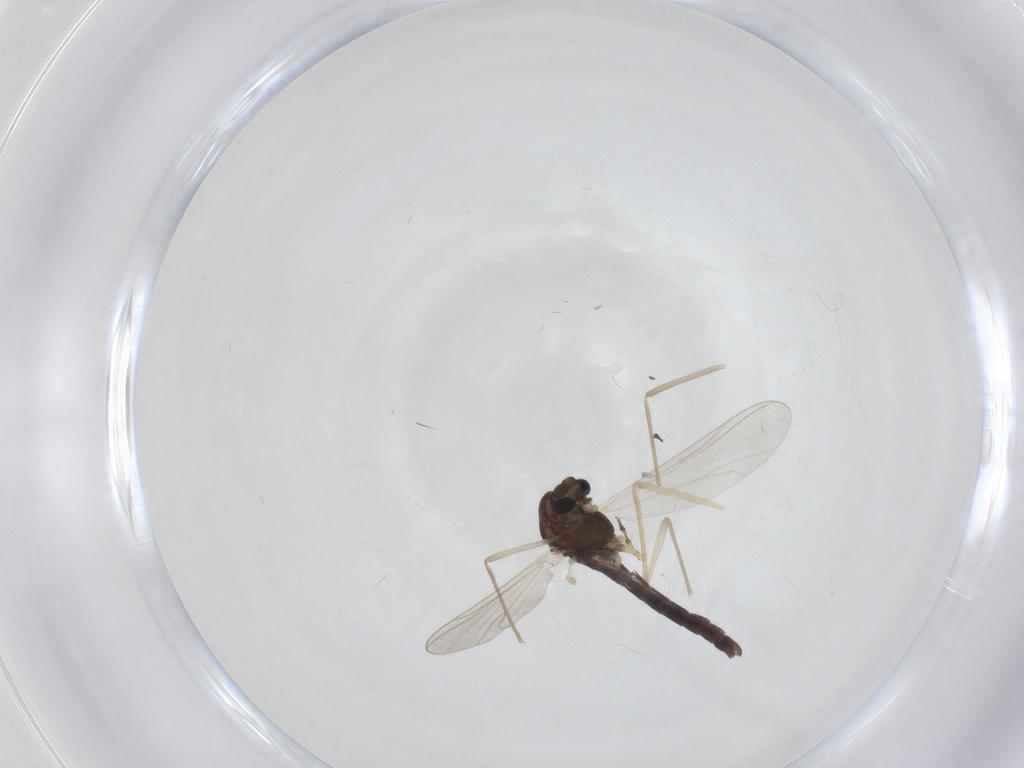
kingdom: Animalia
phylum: Arthropoda
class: Insecta
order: Diptera
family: Chironomidae
